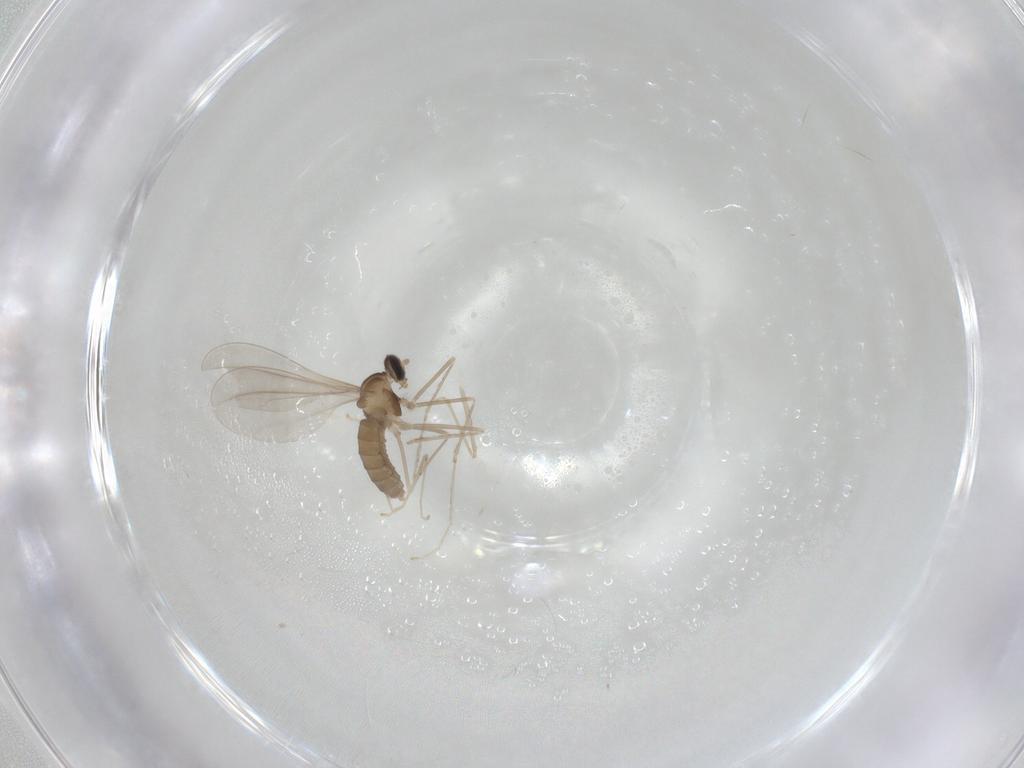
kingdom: Animalia
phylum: Arthropoda
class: Insecta
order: Diptera
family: Cecidomyiidae
